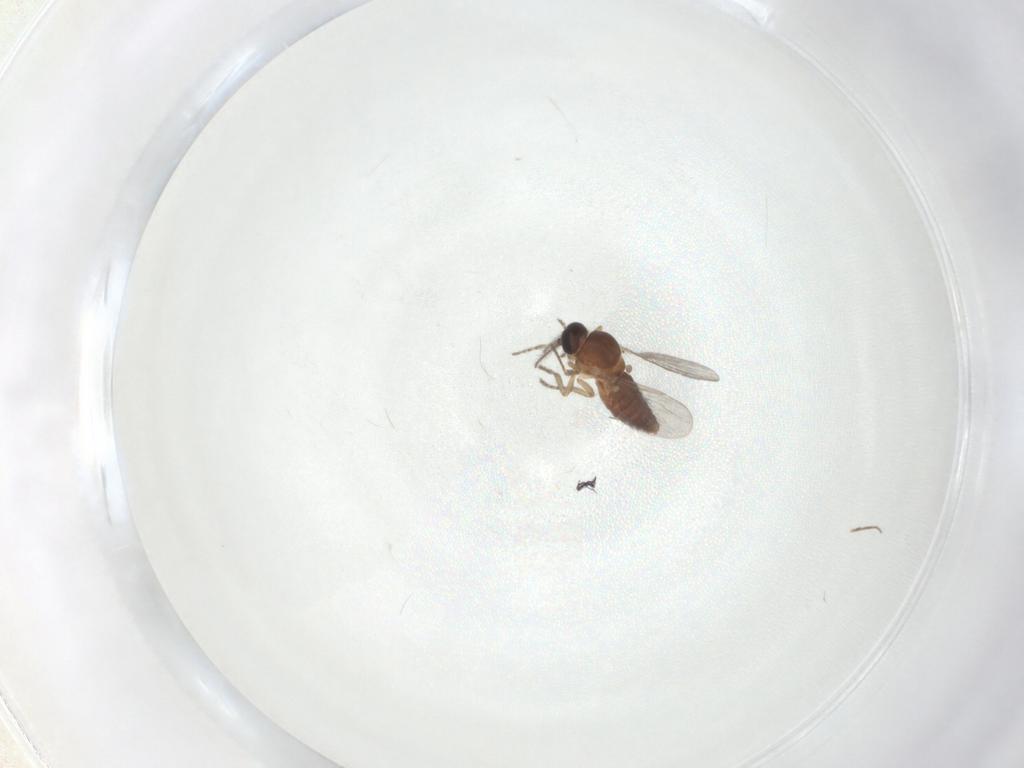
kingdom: Animalia
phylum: Arthropoda
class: Insecta
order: Diptera
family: Chironomidae
